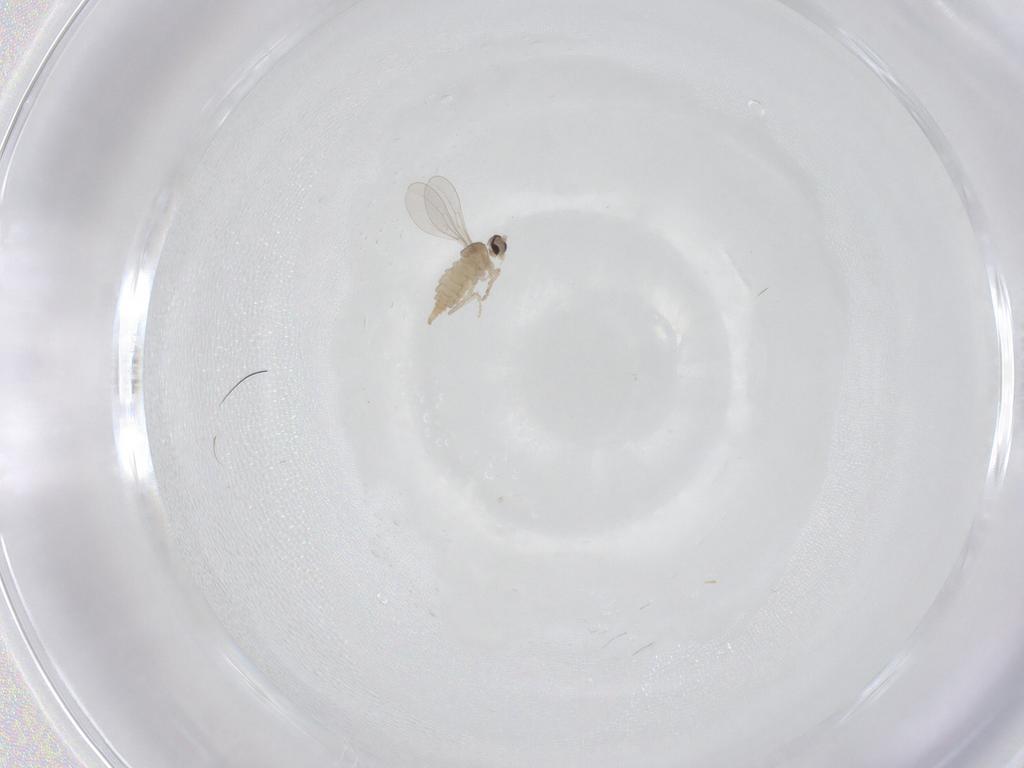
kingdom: Animalia
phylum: Arthropoda
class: Insecta
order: Diptera
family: Cecidomyiidae
